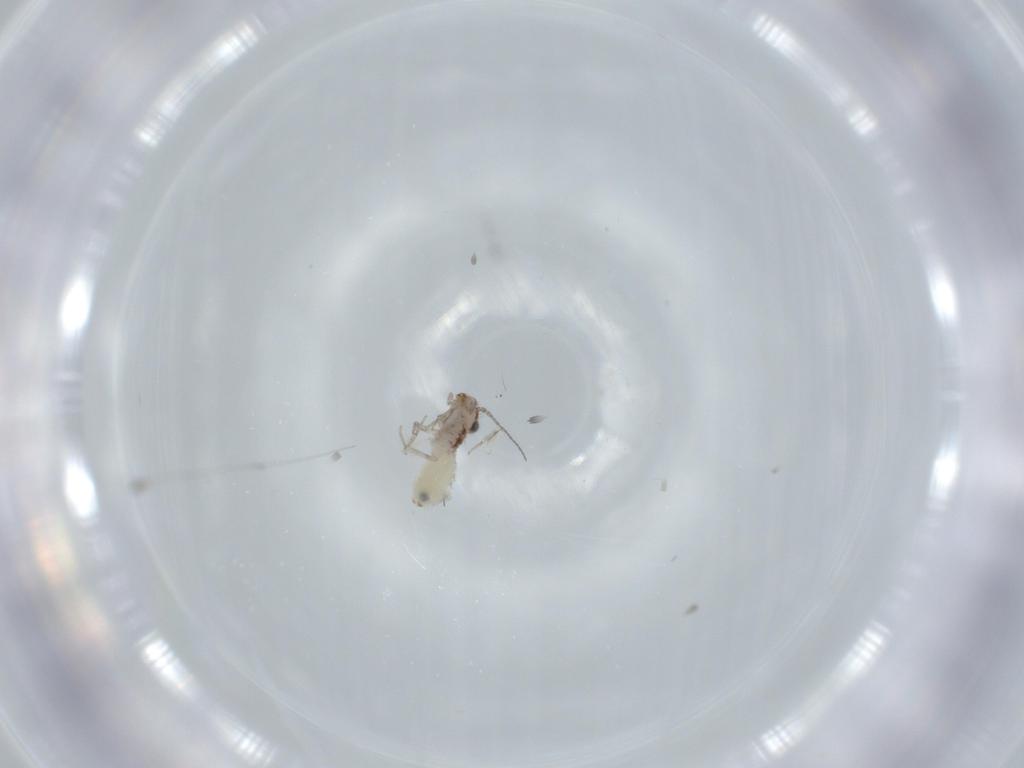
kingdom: Animalia
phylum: Arthropoda
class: Insecta
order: Psocodea
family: Lepidopsocidae
